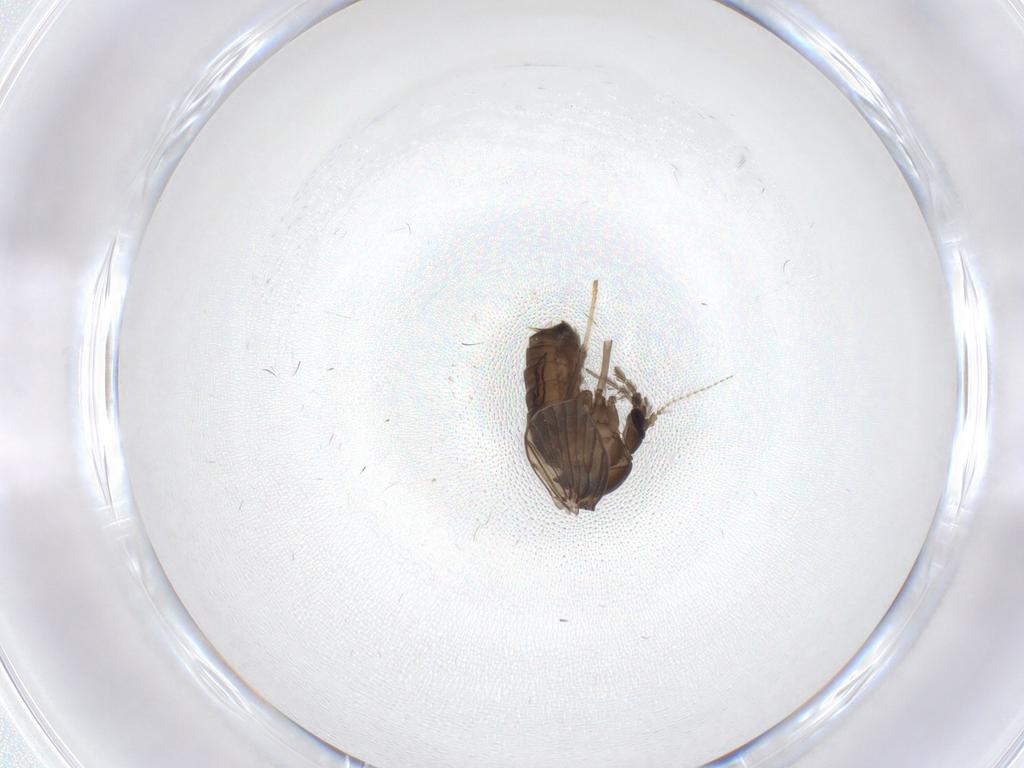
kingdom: Animalia
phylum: Arthropoda
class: Insecta
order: Diptera
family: Psychodidae
